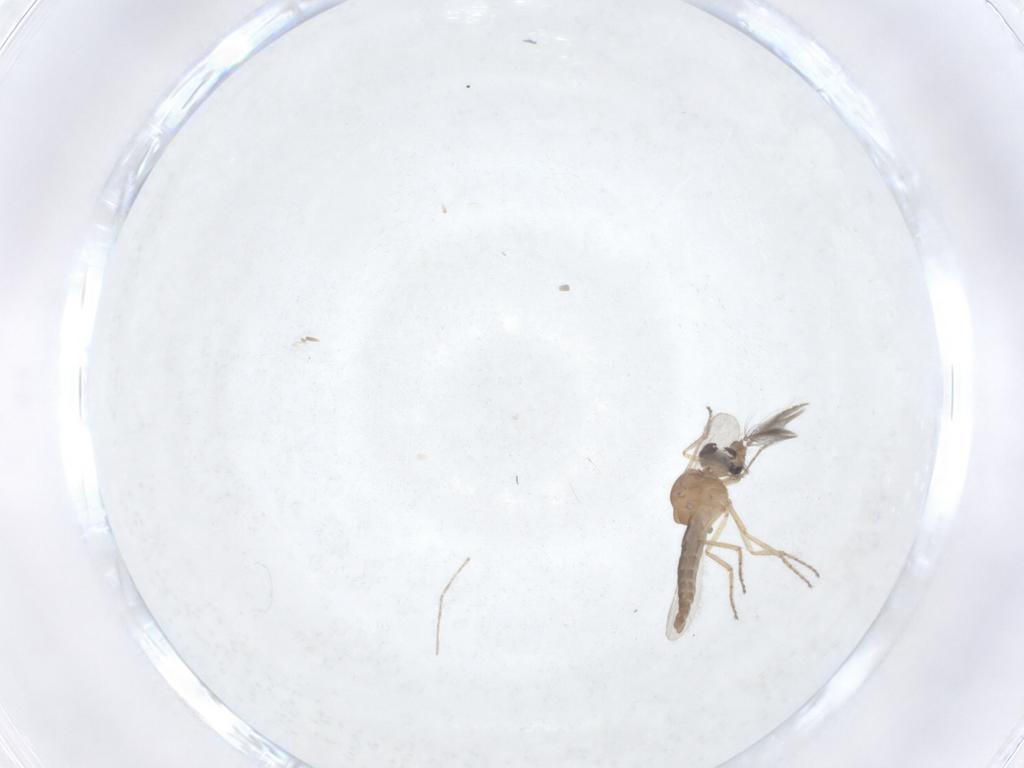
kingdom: Animalia
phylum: Arthropoda
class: Insecta
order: Diptera
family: Ceratopogonidae
